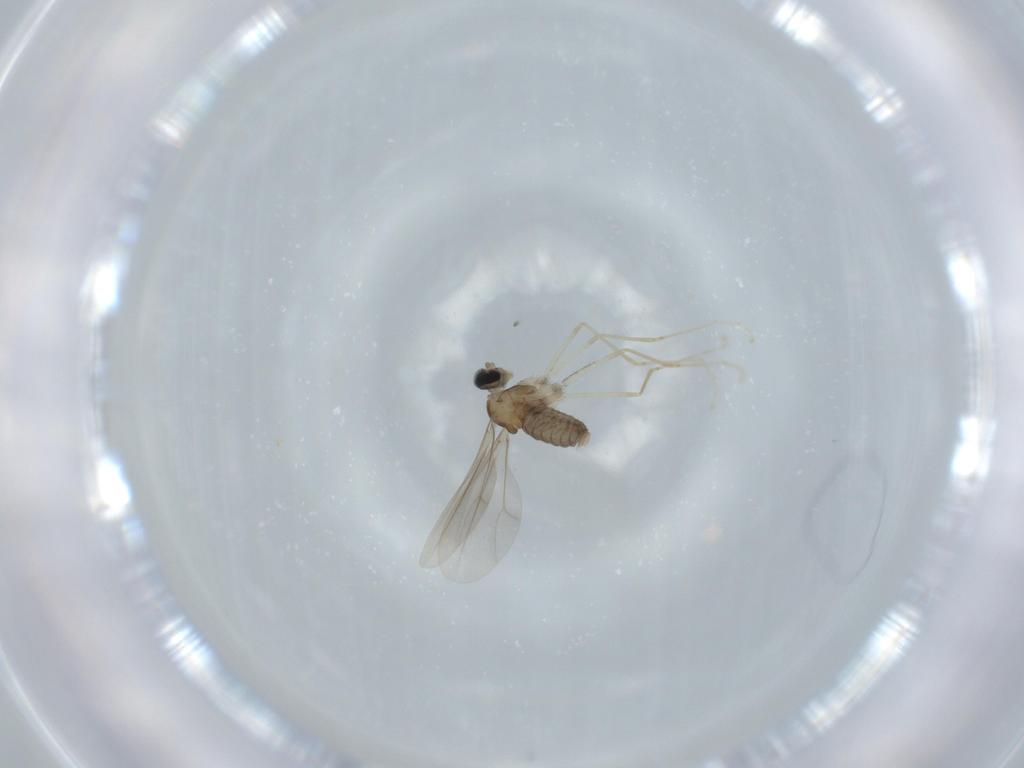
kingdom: Animalia
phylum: Arthropoda
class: Insecta
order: Diptera
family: Cecidomyiidae
